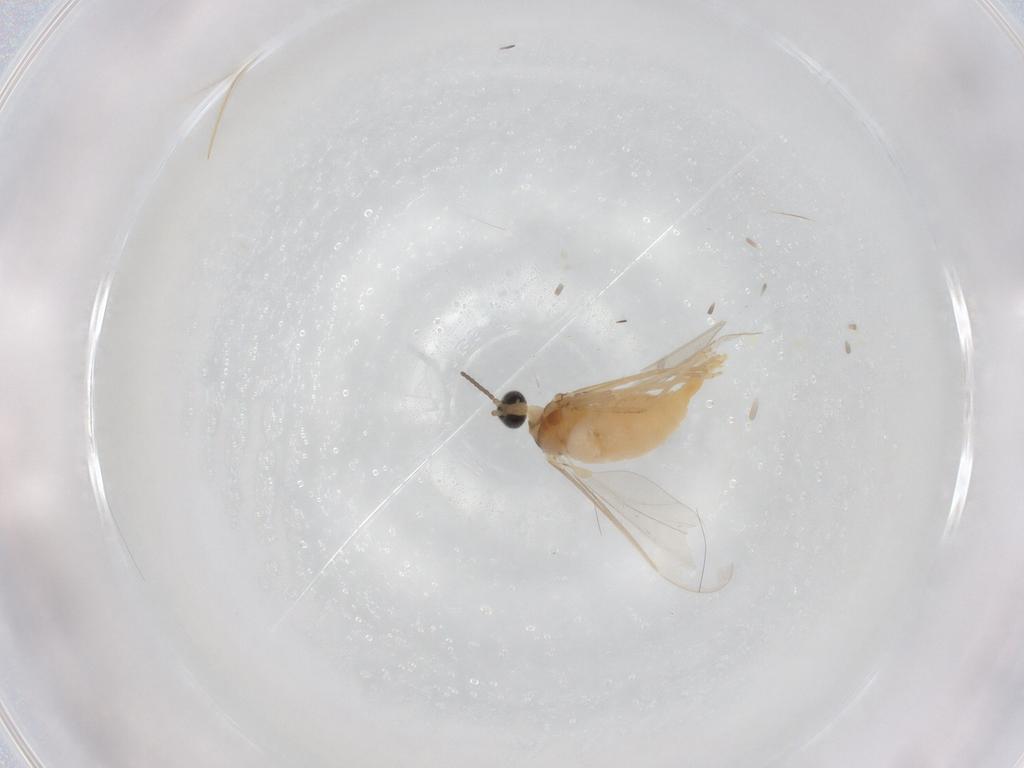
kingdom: Animalia
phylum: Arthropoda
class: Insecta
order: Diptera
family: Cecidomyiidae
